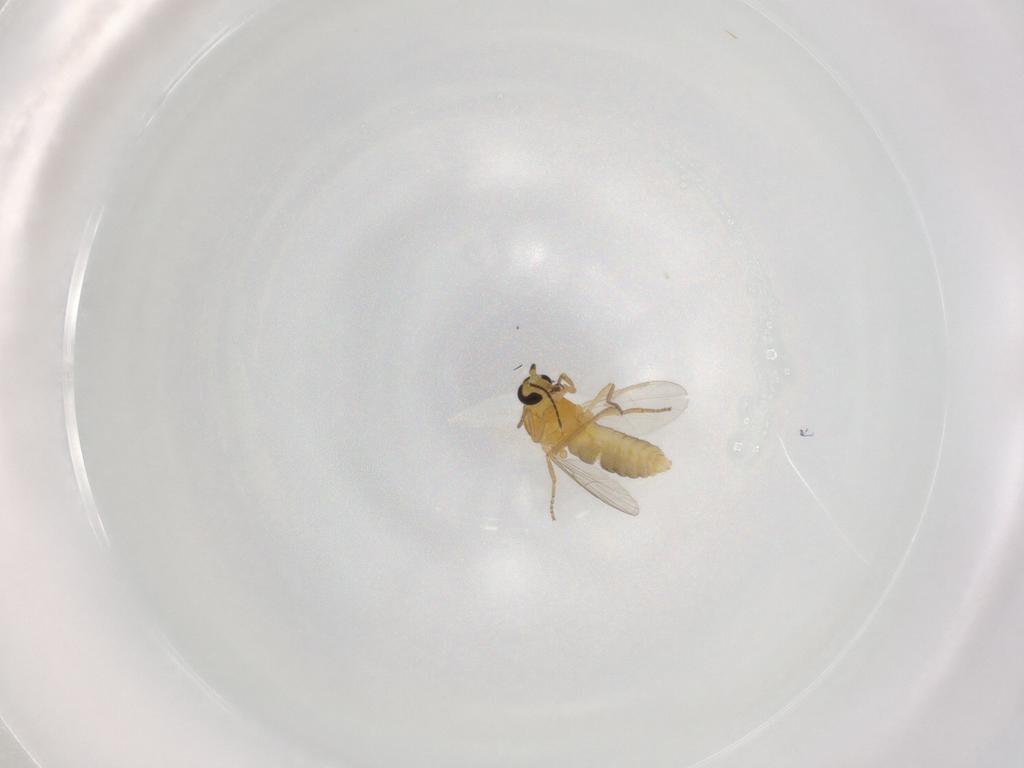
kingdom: Animalia
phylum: Arthropoda
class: Insecta
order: Diptera
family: Ceratopogonidae
